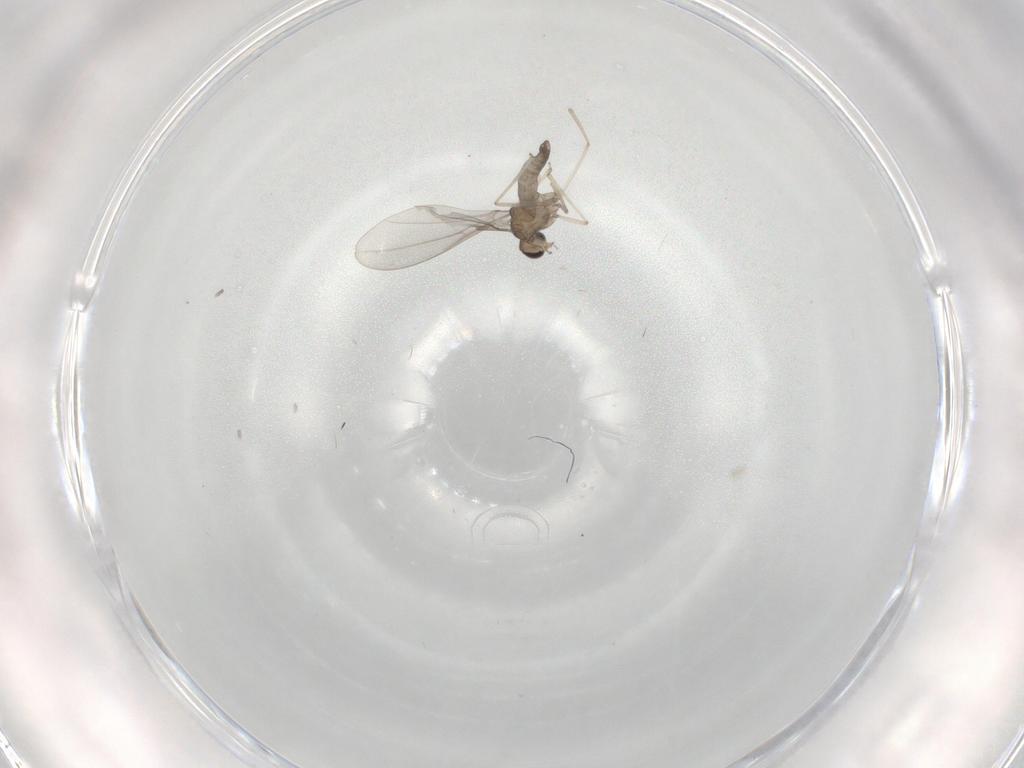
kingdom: Animalia
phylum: Arthropoda
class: Insecta
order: Diptera
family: Cecidomyiidae
